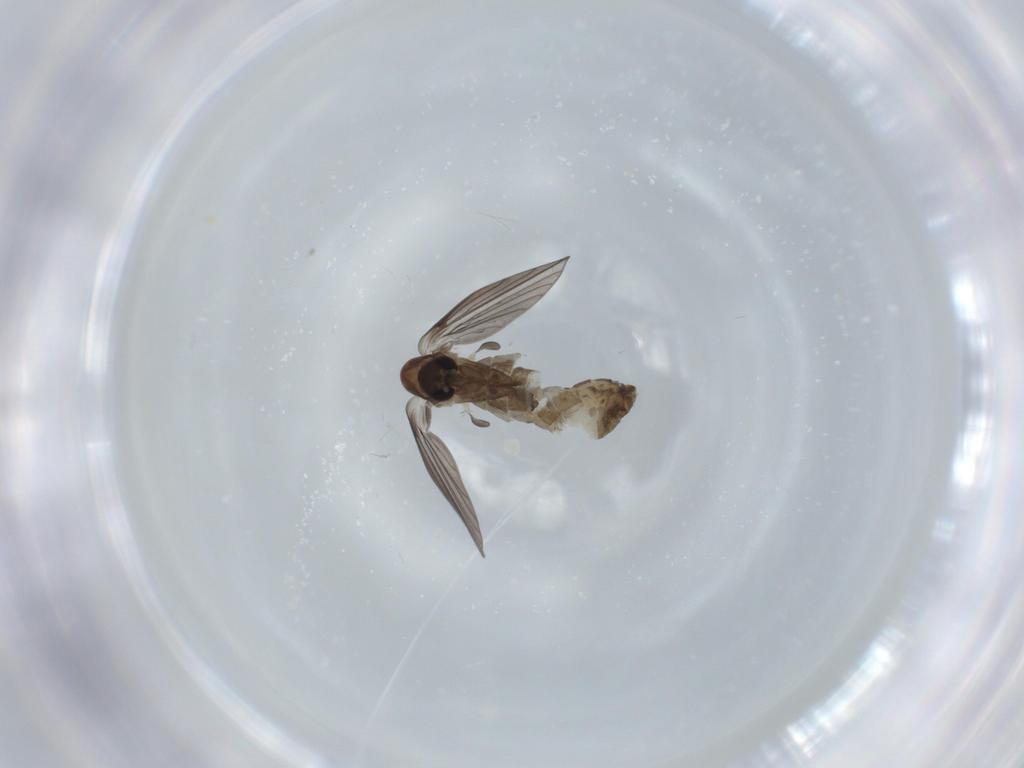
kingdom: Animalia
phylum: Arthropoda
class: Insecta
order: Diptera
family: Psychodidae
